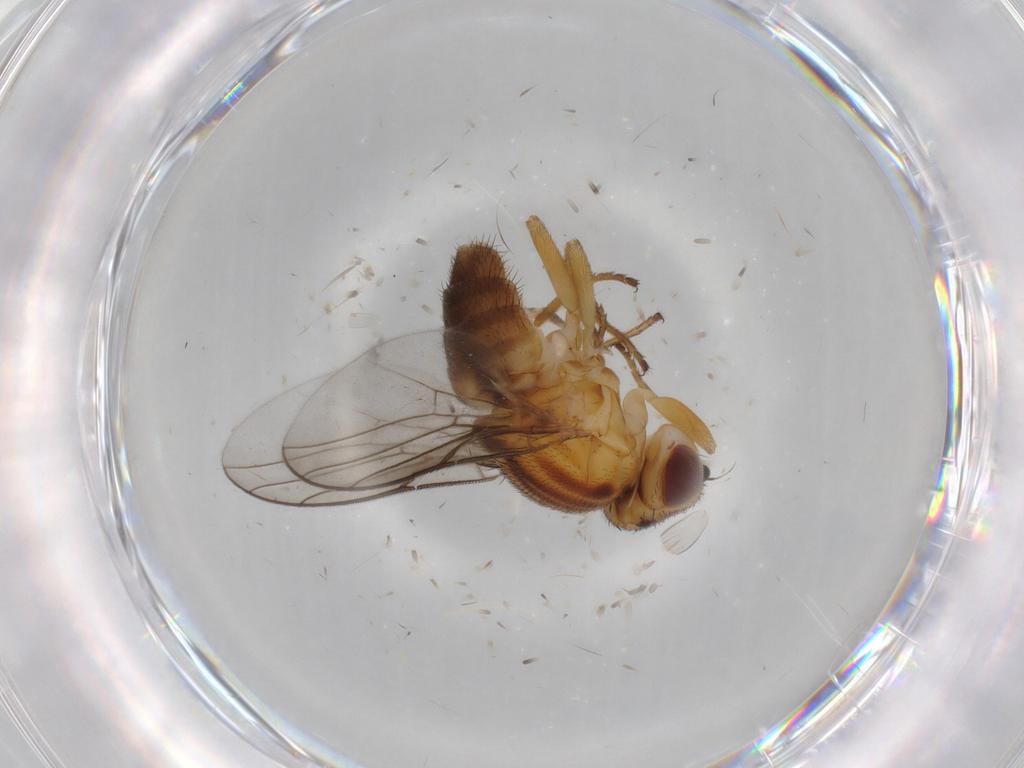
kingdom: Animalia
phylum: Arthropoda
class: Insecta
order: Diptera
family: Chloropidae
